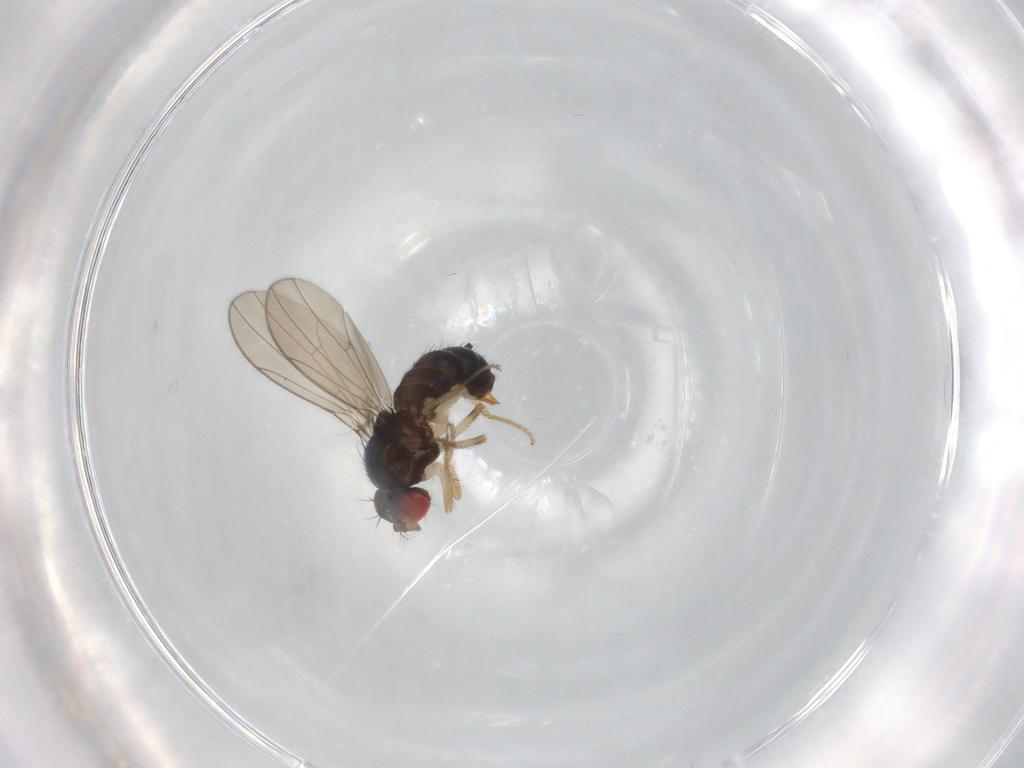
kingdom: Animalia
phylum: Arthropoda
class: Insecta
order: Diptera
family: Drosophilidae
